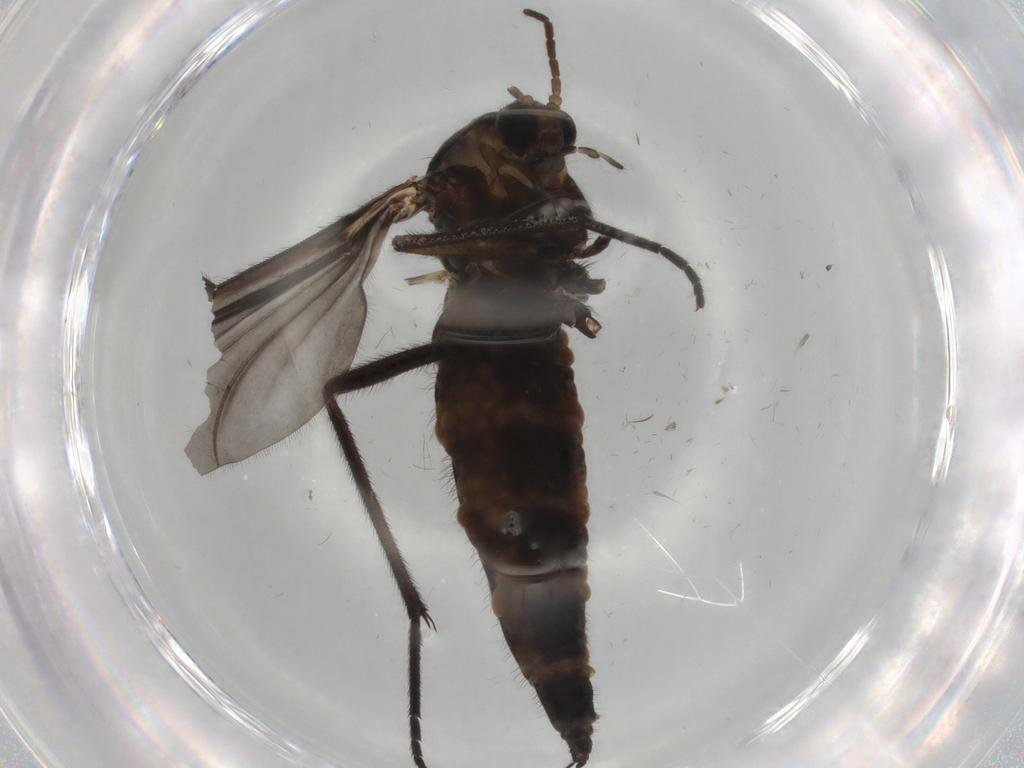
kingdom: Animalia
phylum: Arthropoda
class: Insecta
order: Diptera
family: Sciaridae
